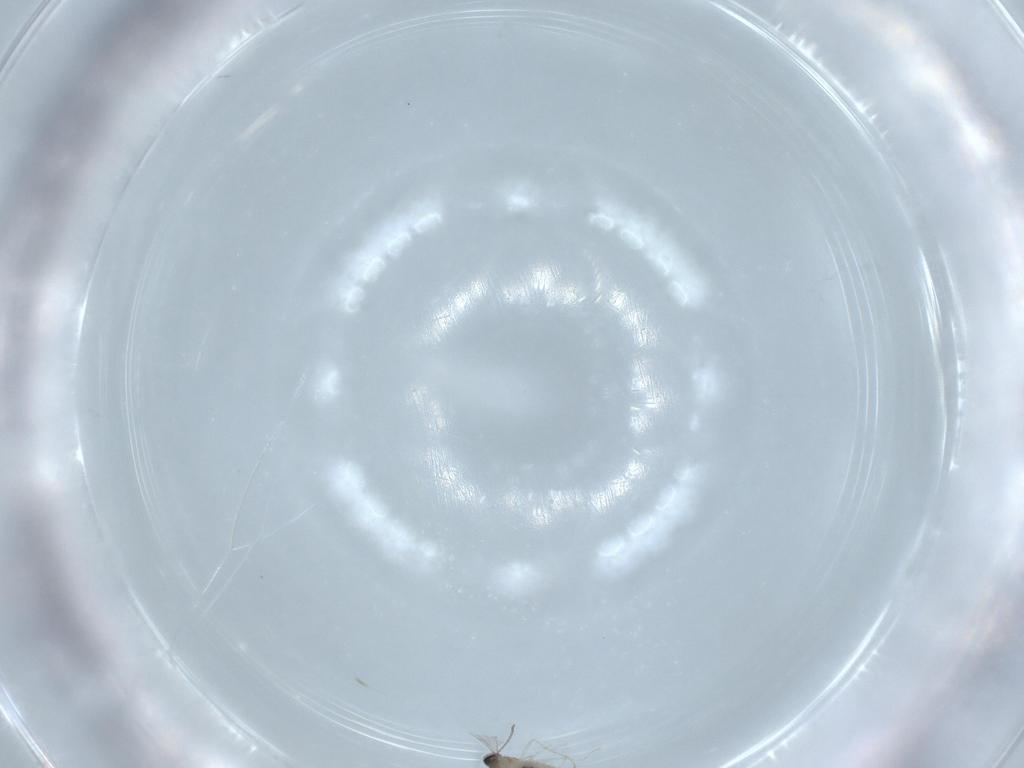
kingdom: Animalia
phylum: Arthropoda
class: Insecta
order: Diptera
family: Cecidomyiidae
